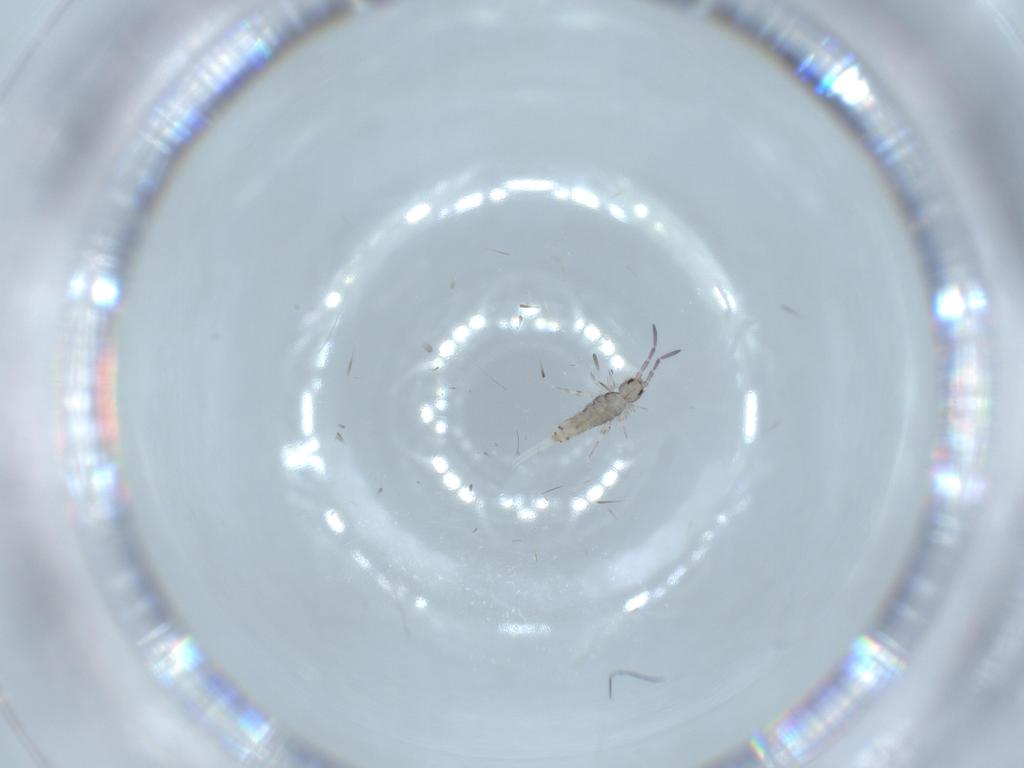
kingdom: Animalia
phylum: Arthropoda
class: Collembola
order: Entomobryomorpha
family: Entomobryidae
